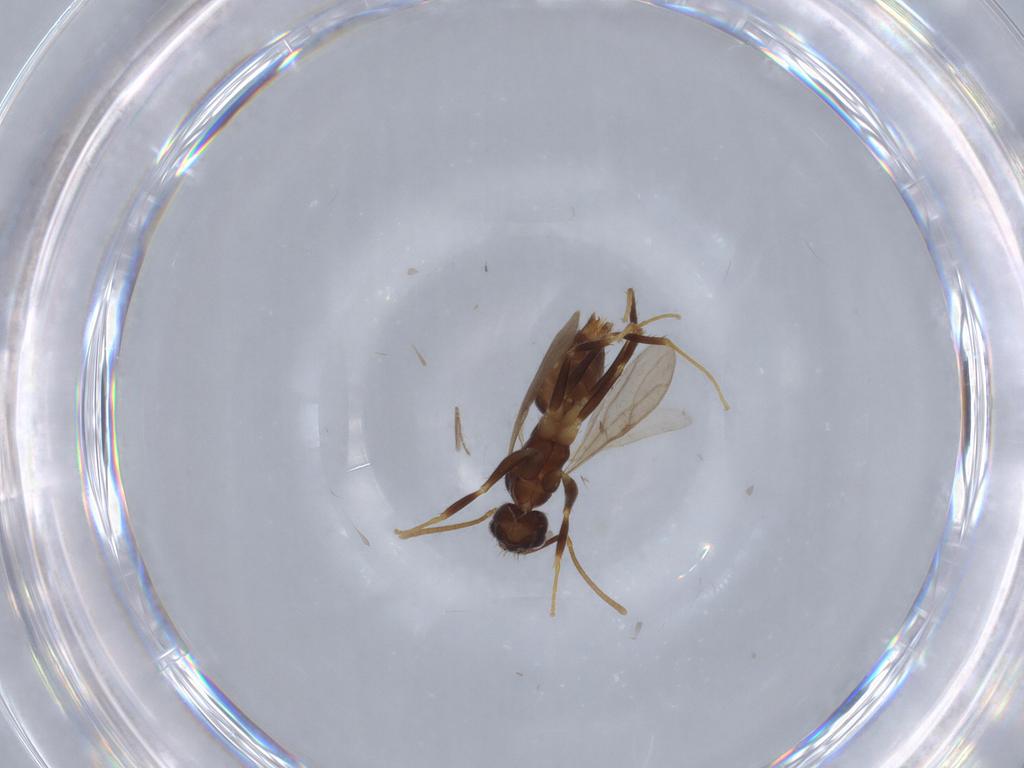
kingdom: Animalia
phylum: Arthropoda
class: Insecta
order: Hymenoptera
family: Formicidae
